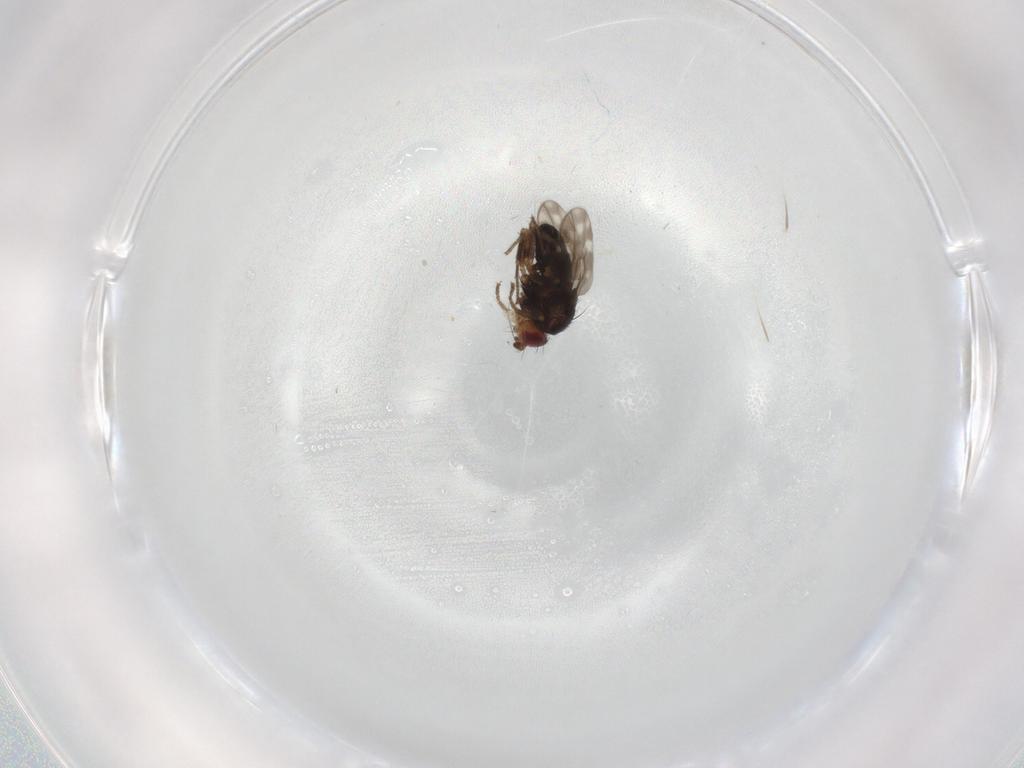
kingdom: Animalia
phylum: Arthropoda
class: Insecta
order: Diptera
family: Sphaeroceridae
